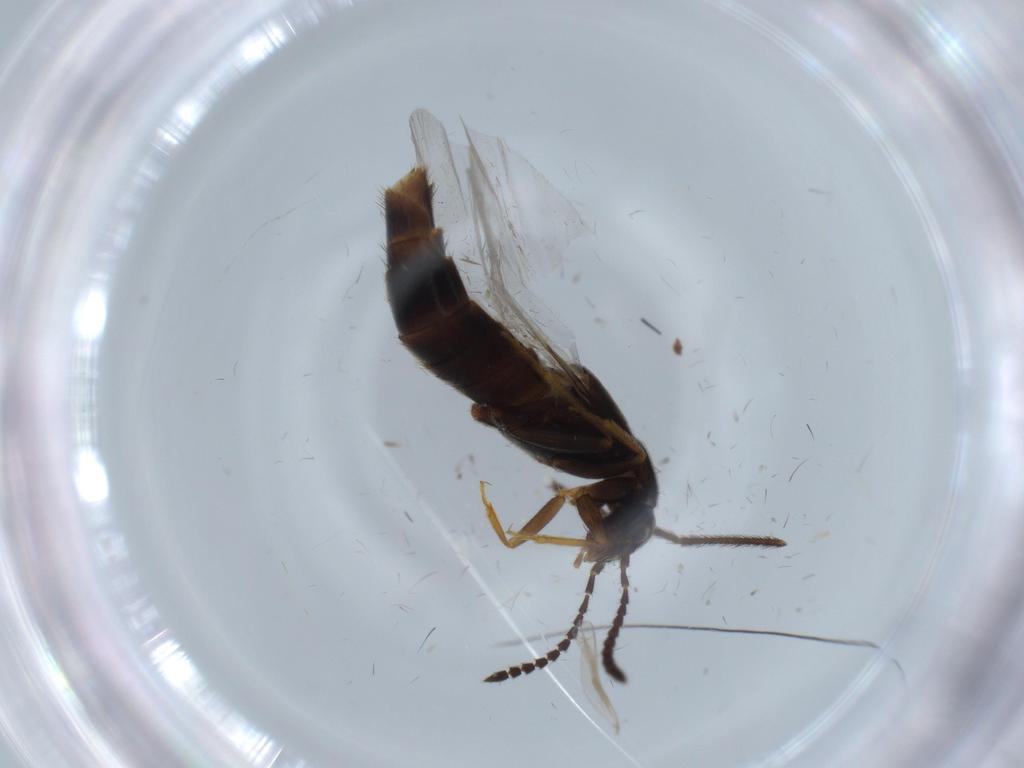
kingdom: Animalia
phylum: Arthropoda
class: Insecta
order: Coleoptera
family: Staphylinidae
